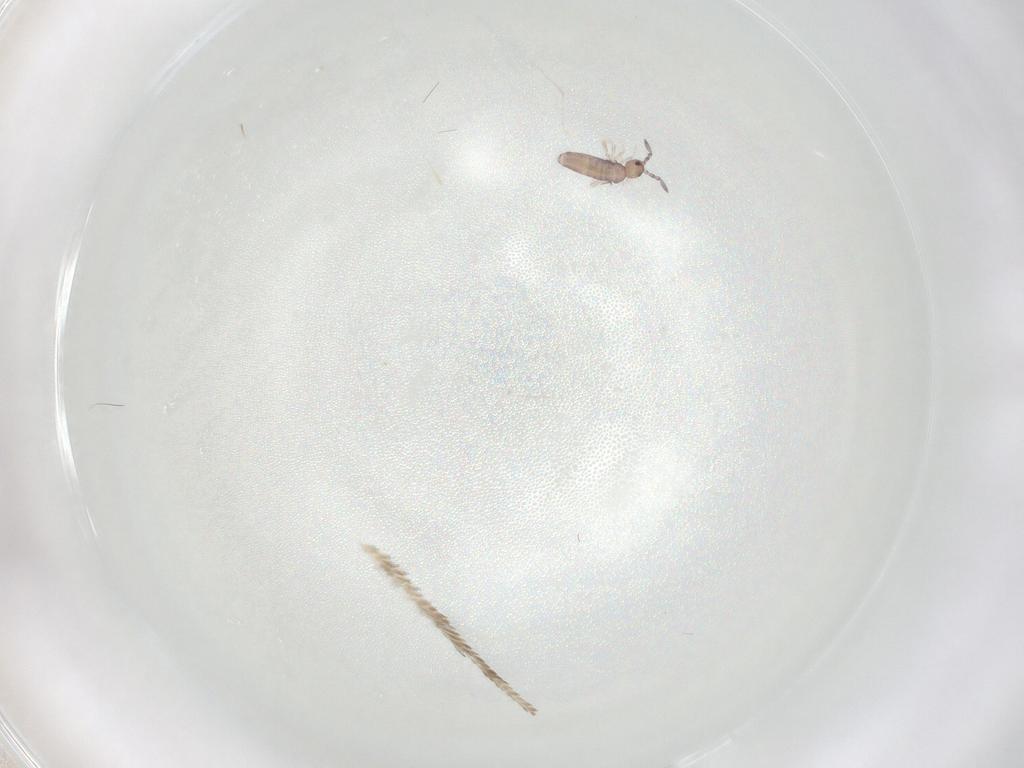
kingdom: Animalia
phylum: Arthropoda
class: Collembola
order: Entomobryomorpha
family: Entomobryidae
